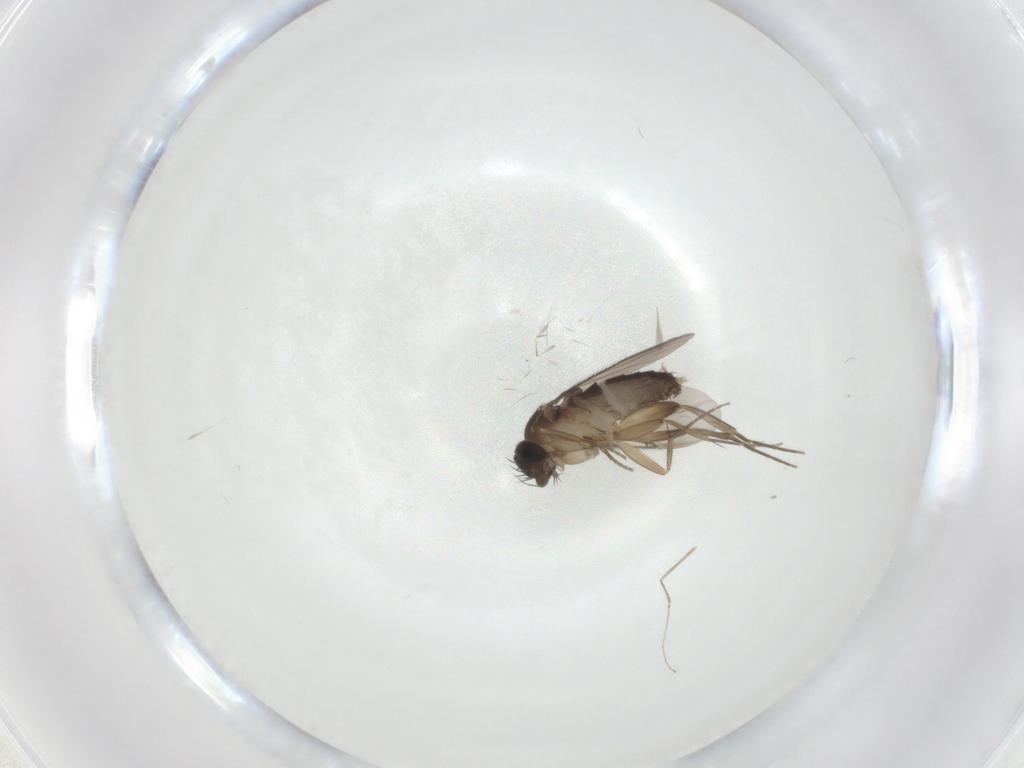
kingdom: Animalia
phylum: Arthropoda
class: Insecta
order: Diptera
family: Phoridae
